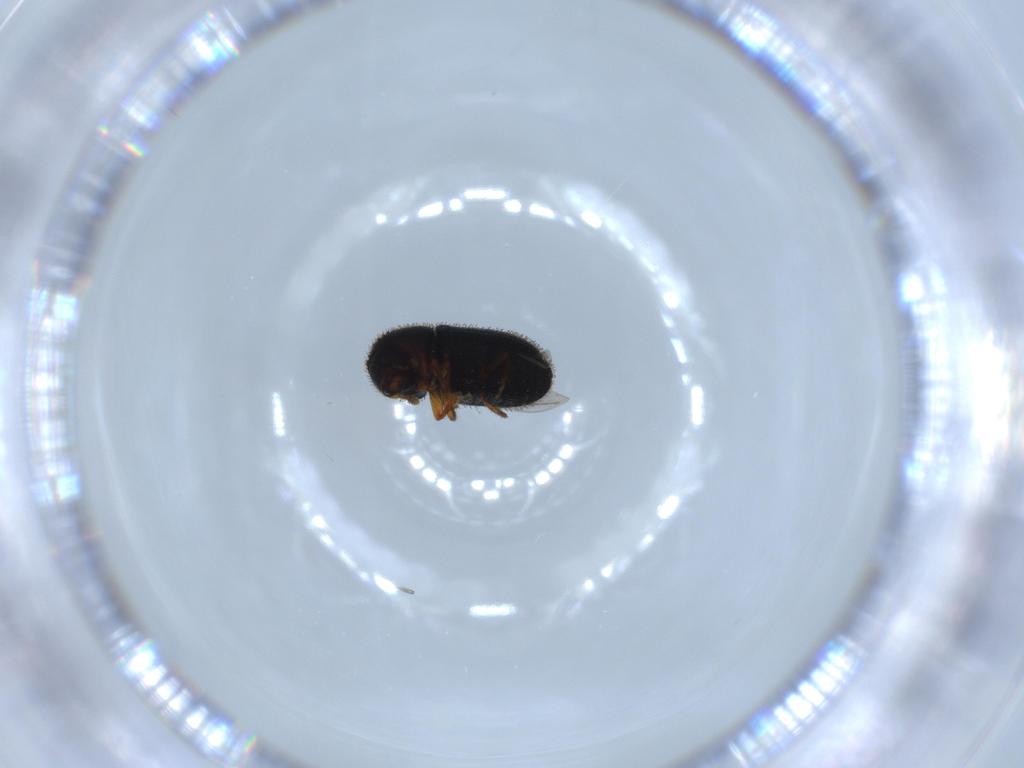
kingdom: Animalia
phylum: Arthropoda
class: Insecta
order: Coleoptera
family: Curculionidae
